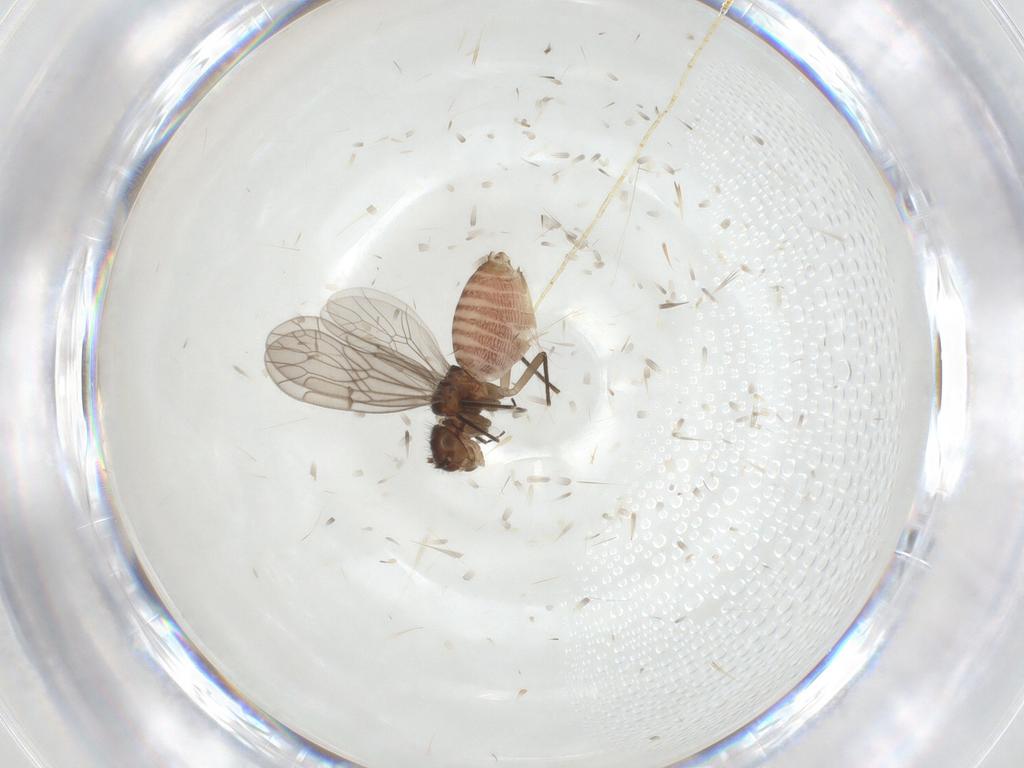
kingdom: Animalia
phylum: Arthropoda
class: Insecta
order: Psocodea
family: Ectopsocidae
